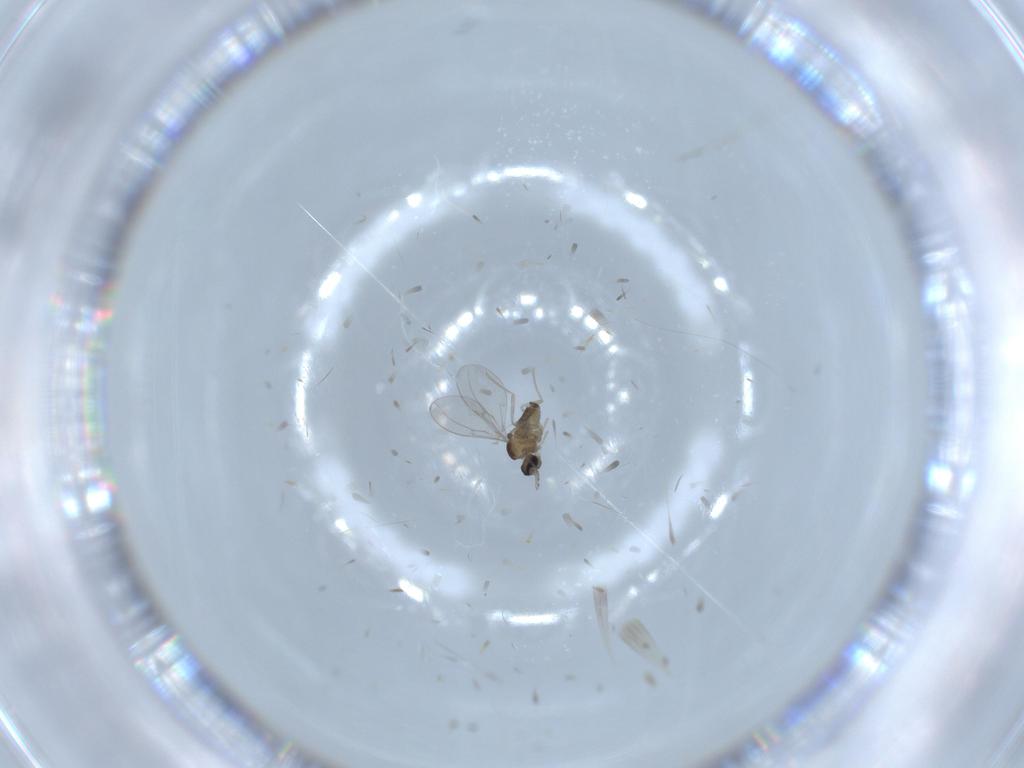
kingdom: Animalia
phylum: Arthropoda
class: Insecta
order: Diptera
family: Cecidomyiidae
